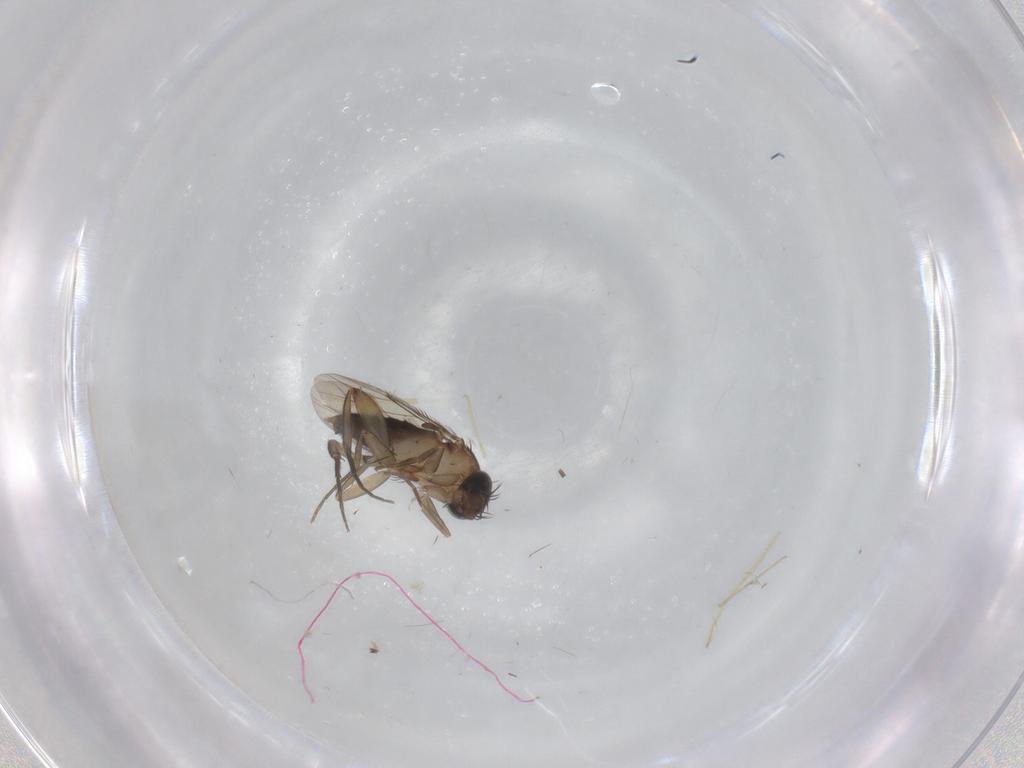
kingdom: Animalia
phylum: Arthropoda
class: Insecta
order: Diptera
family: Phoridae
